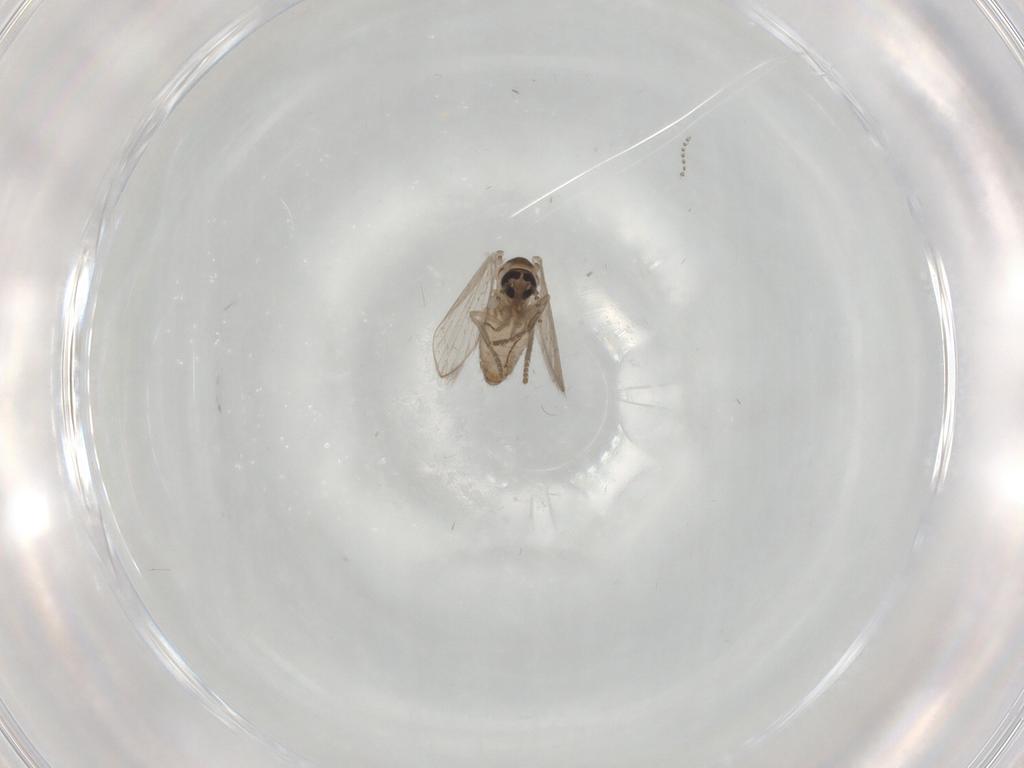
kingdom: Animalia
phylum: Arthropoda
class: Insecta
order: Diptera
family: Psychodidae
